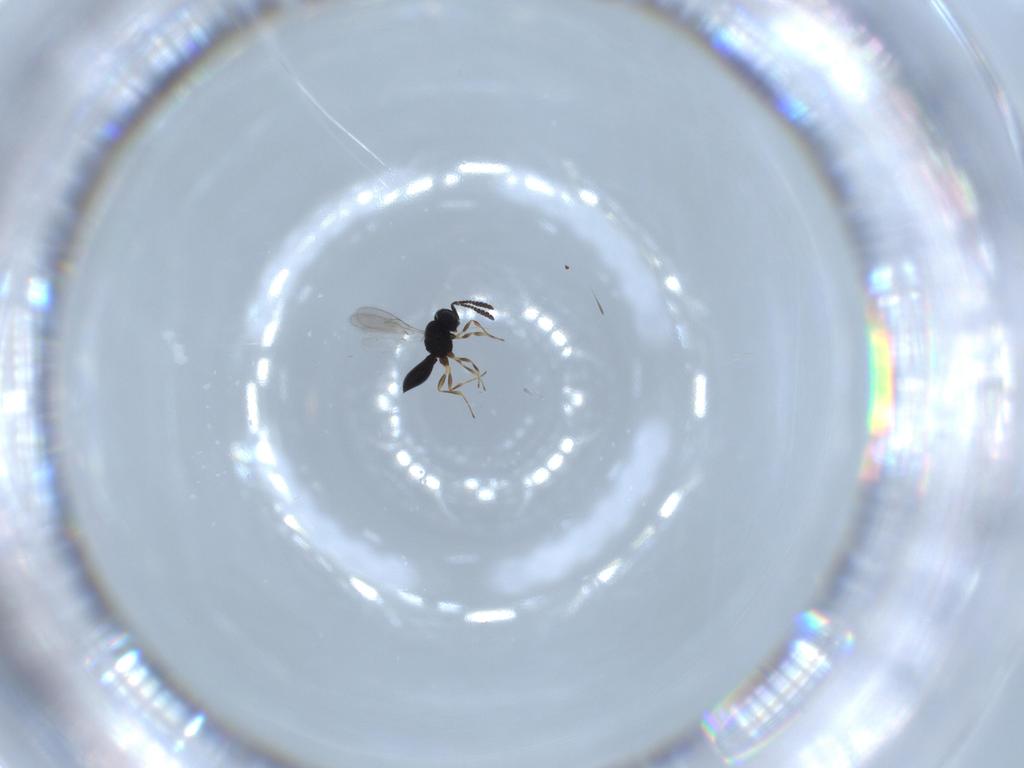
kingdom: Animalia
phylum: Arthropoda
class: Insecta
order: Hymenoptera
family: Scelionidae
